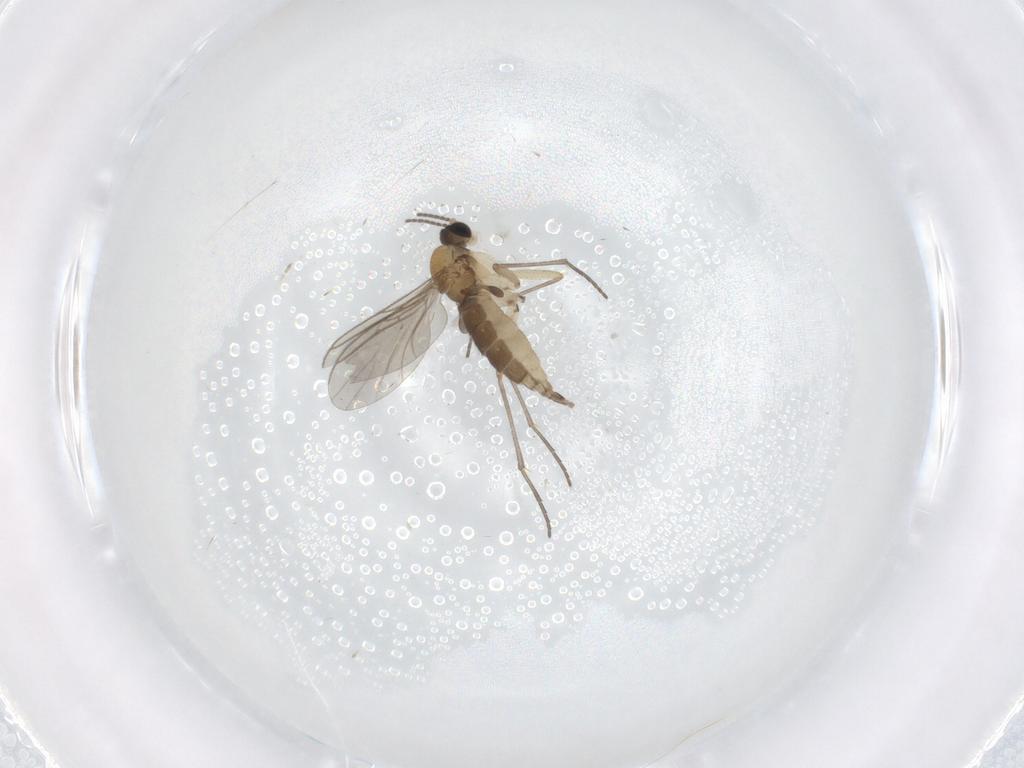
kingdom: Animalia
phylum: Arthropoda
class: Insecta
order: Diptera
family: Sciaridae
